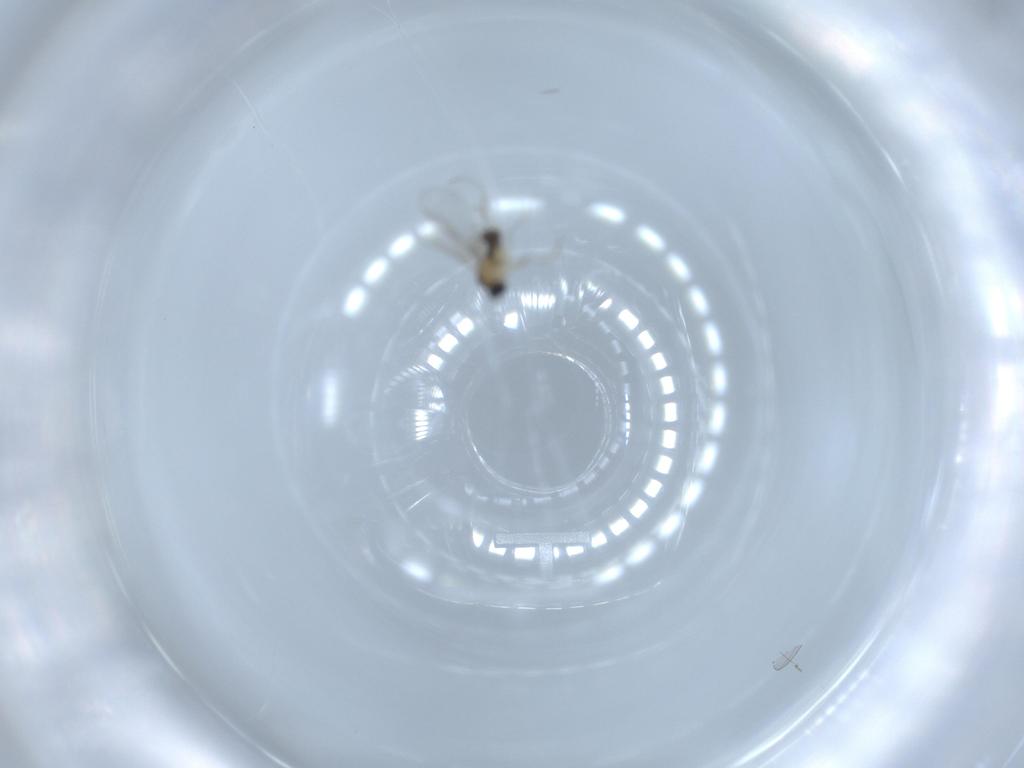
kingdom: Animalia
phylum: Arthropoda
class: Insecta
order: Diptera
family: Cecidomyiidae
